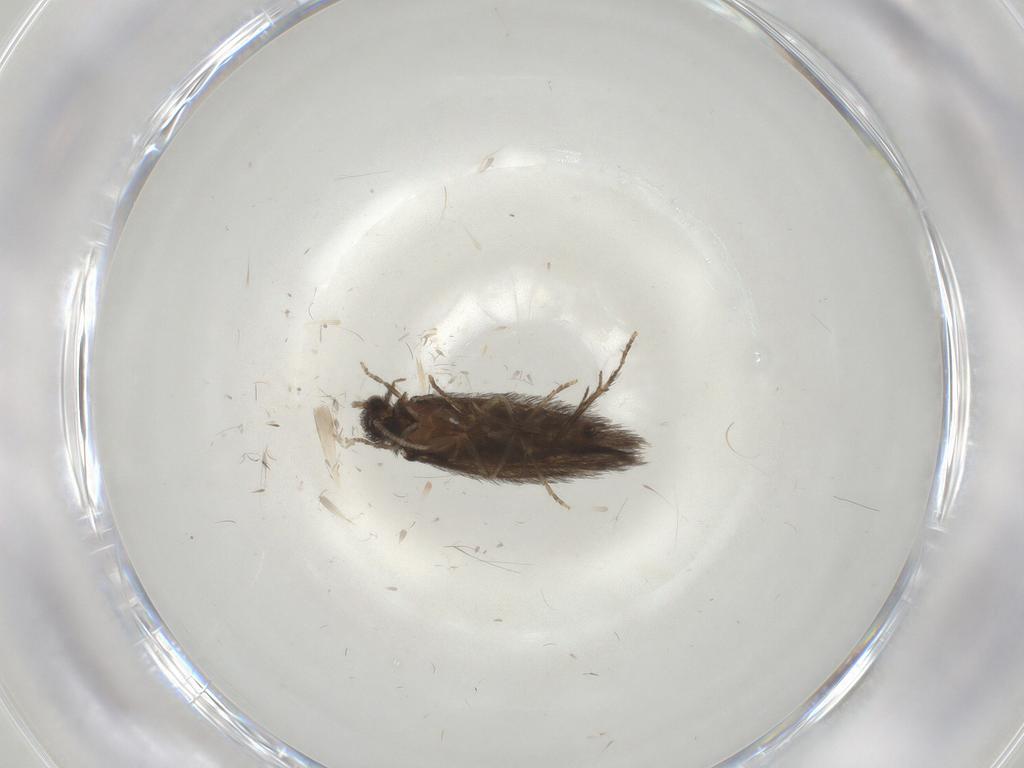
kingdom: Animalia
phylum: Arthropoda
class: Insecta
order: Trichoptera
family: Hydroptilidae
